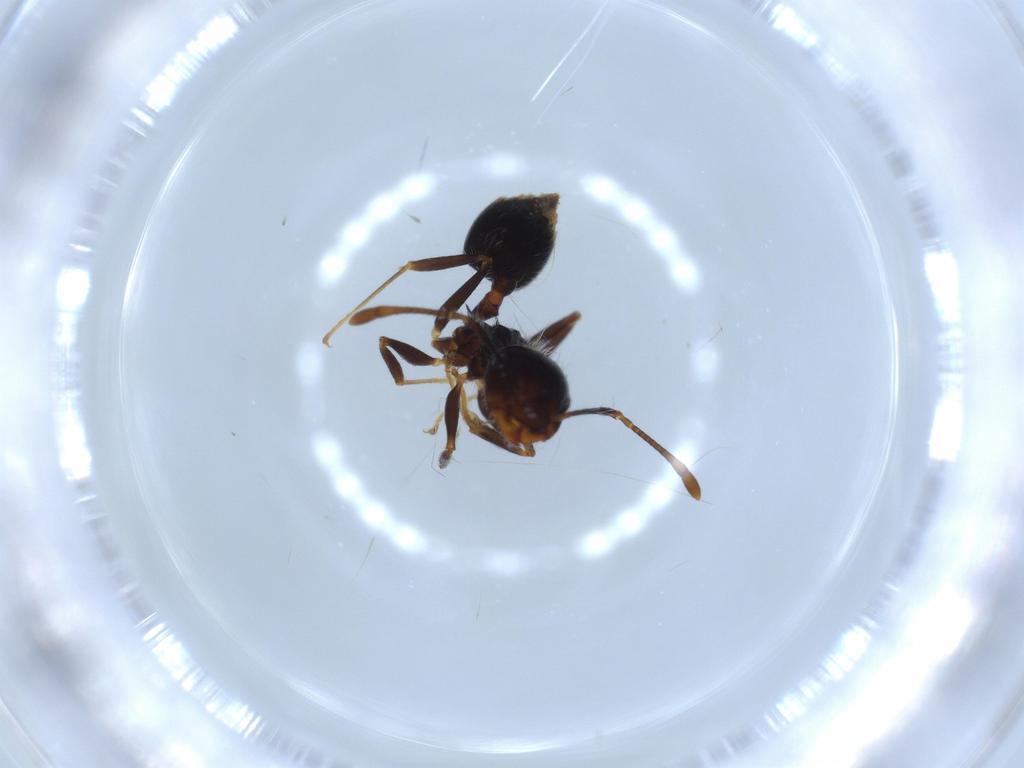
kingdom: Animalia
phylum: Arthropoda
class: Insecta
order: Hymenoptera
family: Formicidae
